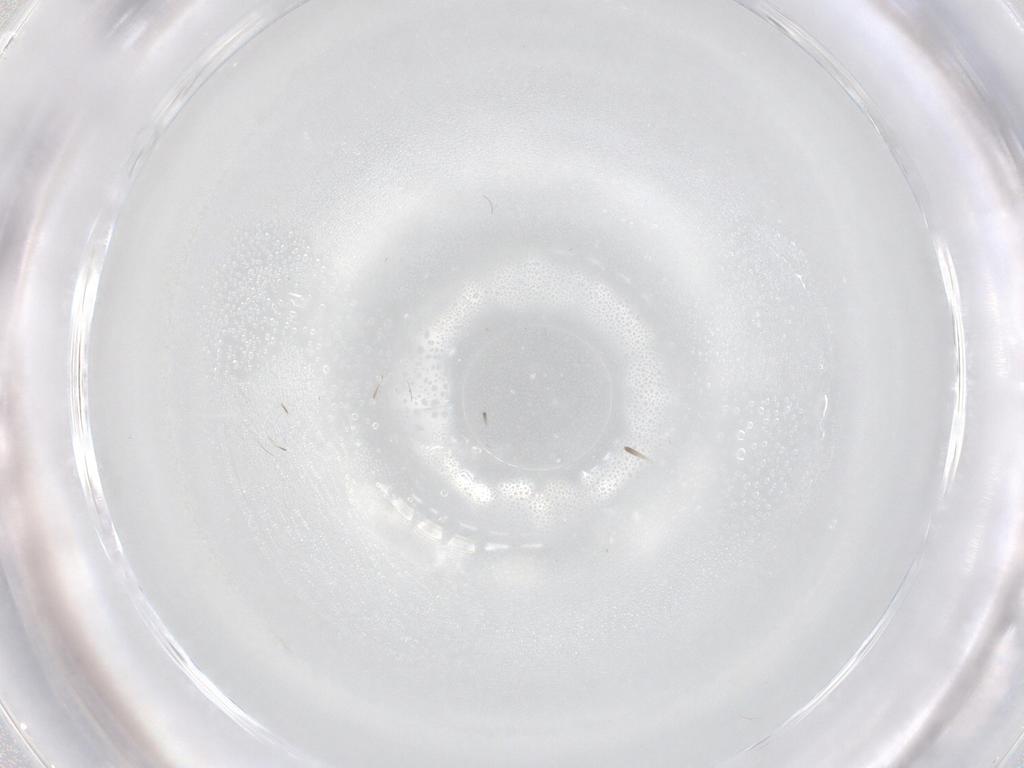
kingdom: Animalia
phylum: Arthropoda
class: Insecta
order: Diptera
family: Cecidomyiidae
